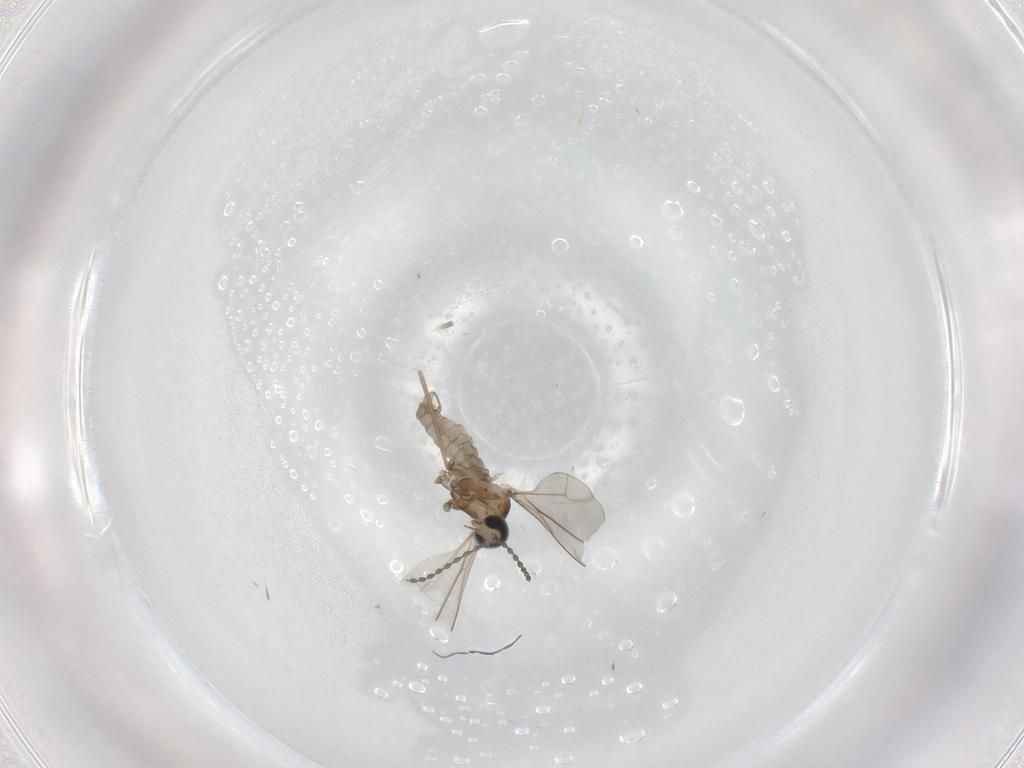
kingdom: Animalia
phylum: Arthropoda
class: Insecta
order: Diptera
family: Cecidomyiidae
